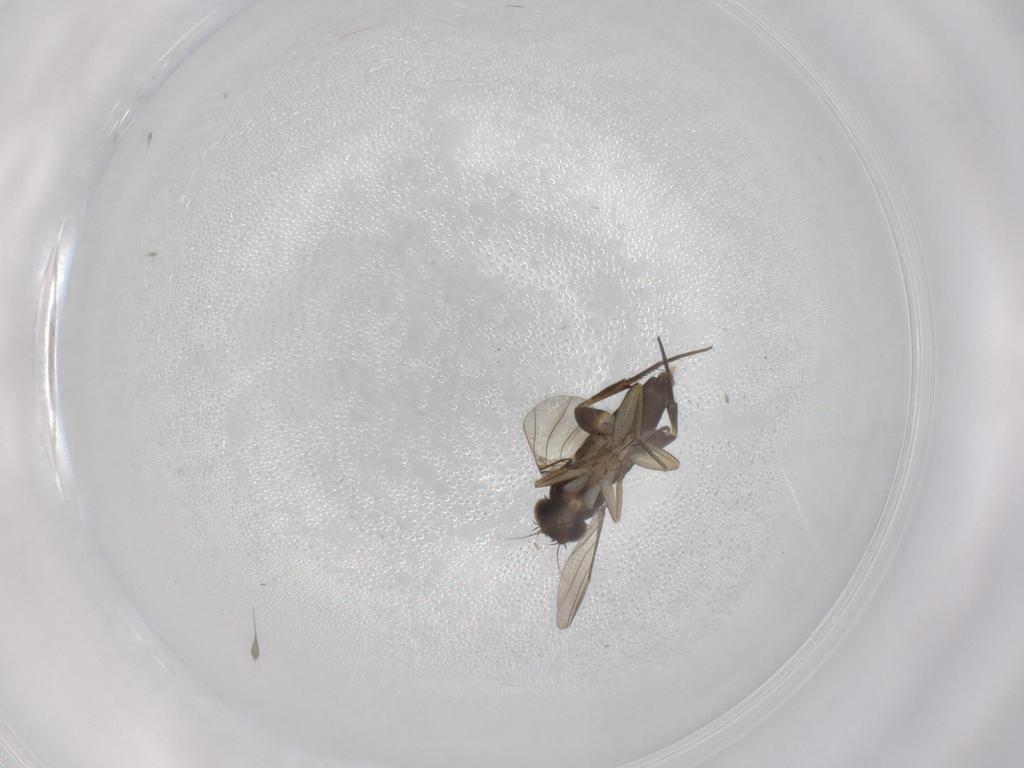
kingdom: Animalia
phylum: Arthropoda
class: Insecta
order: Diptera
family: Phoridae
